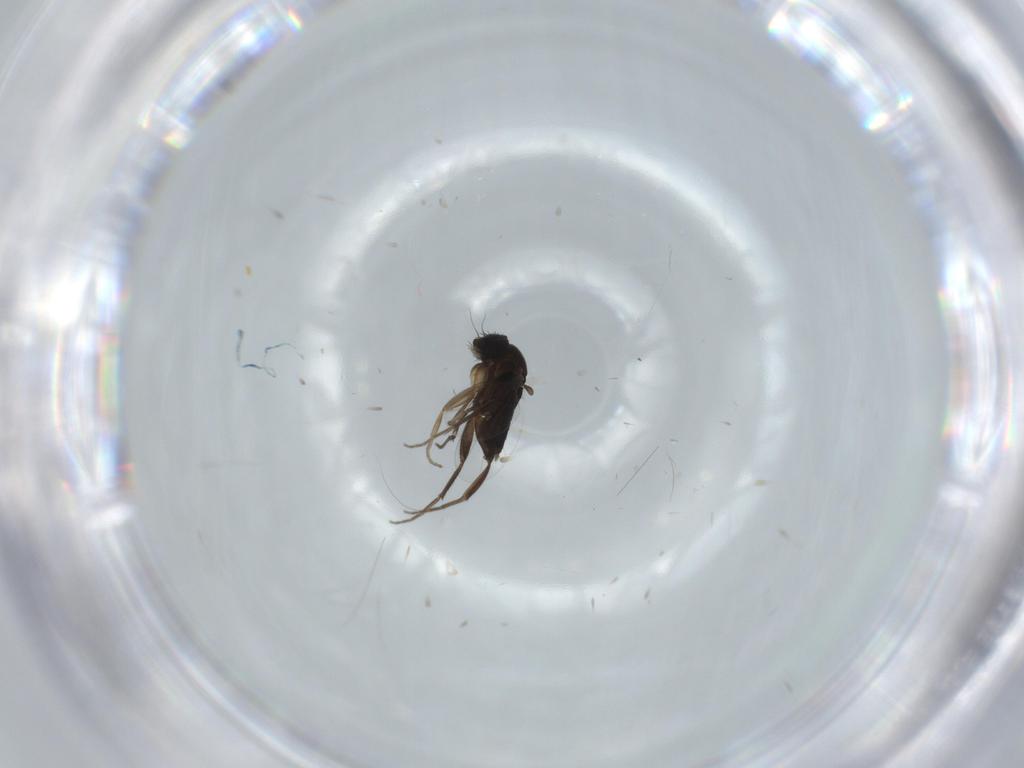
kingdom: Animalia
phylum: Arthropoda
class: Insecta
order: Diptera
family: Phoridae
